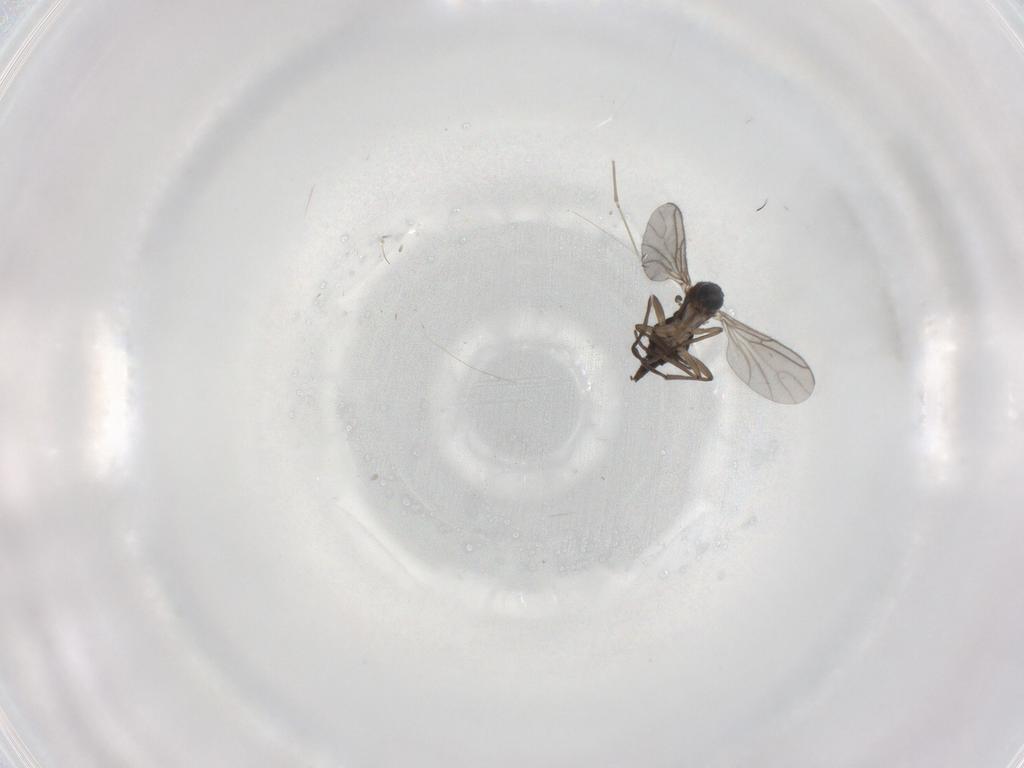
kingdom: Animalia
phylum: Arthropoda
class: Insecta
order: Diptera
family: Sciaridae
